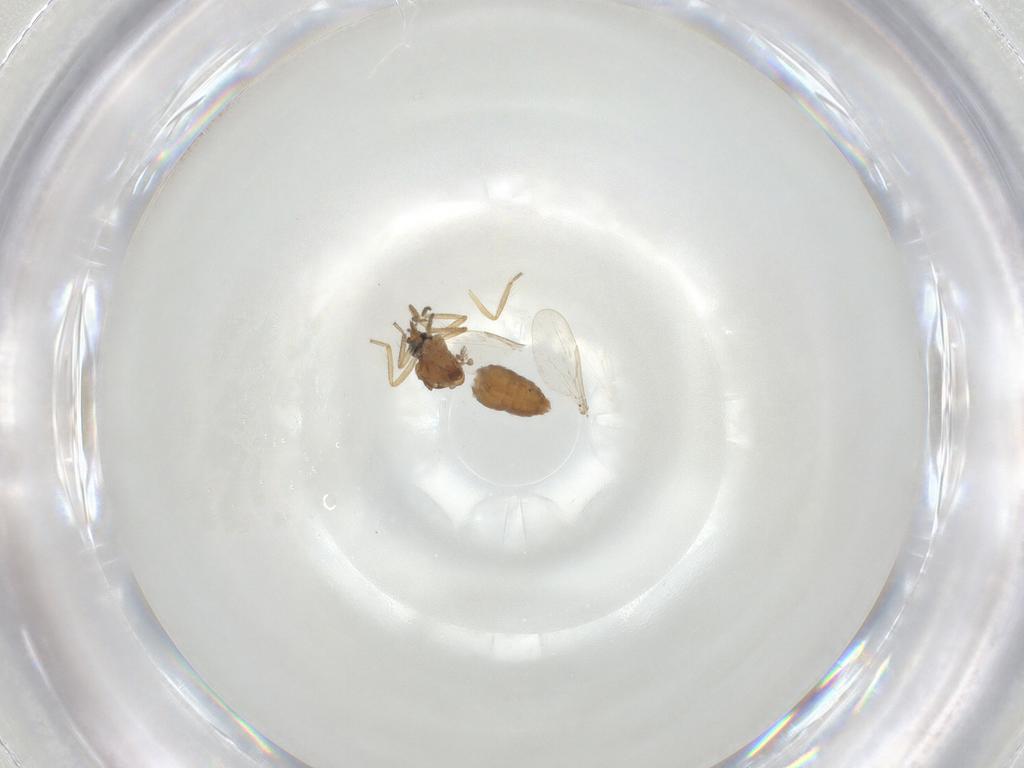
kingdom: Animalia
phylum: Arthropoda
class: Insecta
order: Diptera
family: Ceratopogonidae
